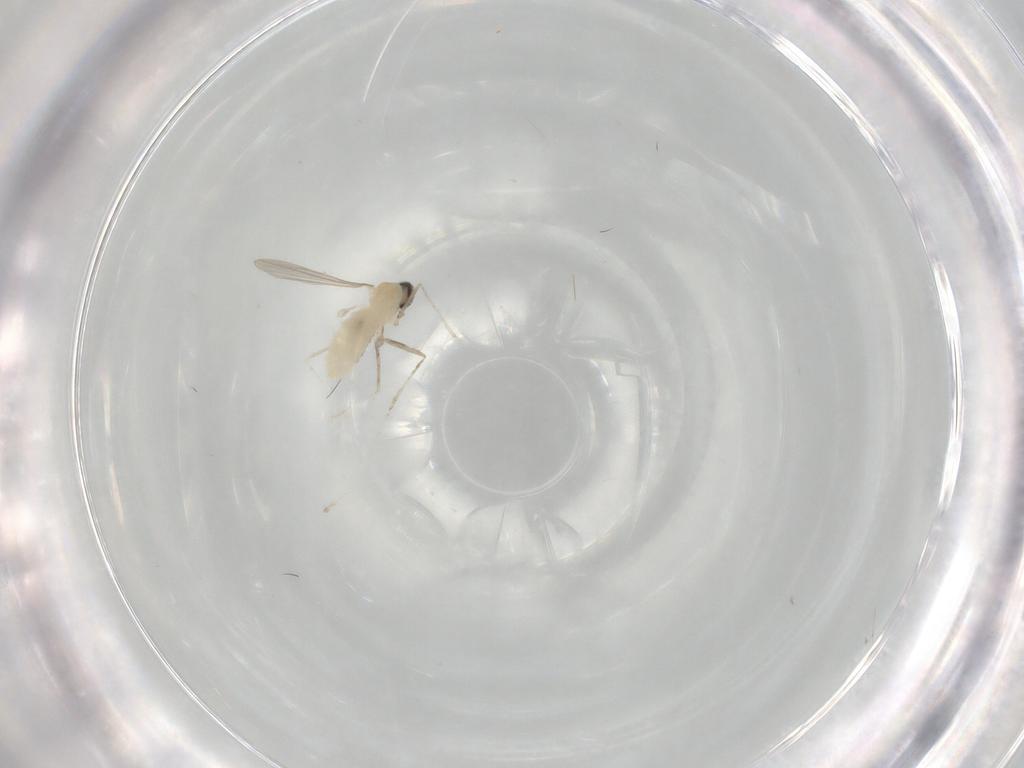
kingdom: Animalia
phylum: Arthropoda
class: Insecta
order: Diptera
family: Cecidomyiidae
